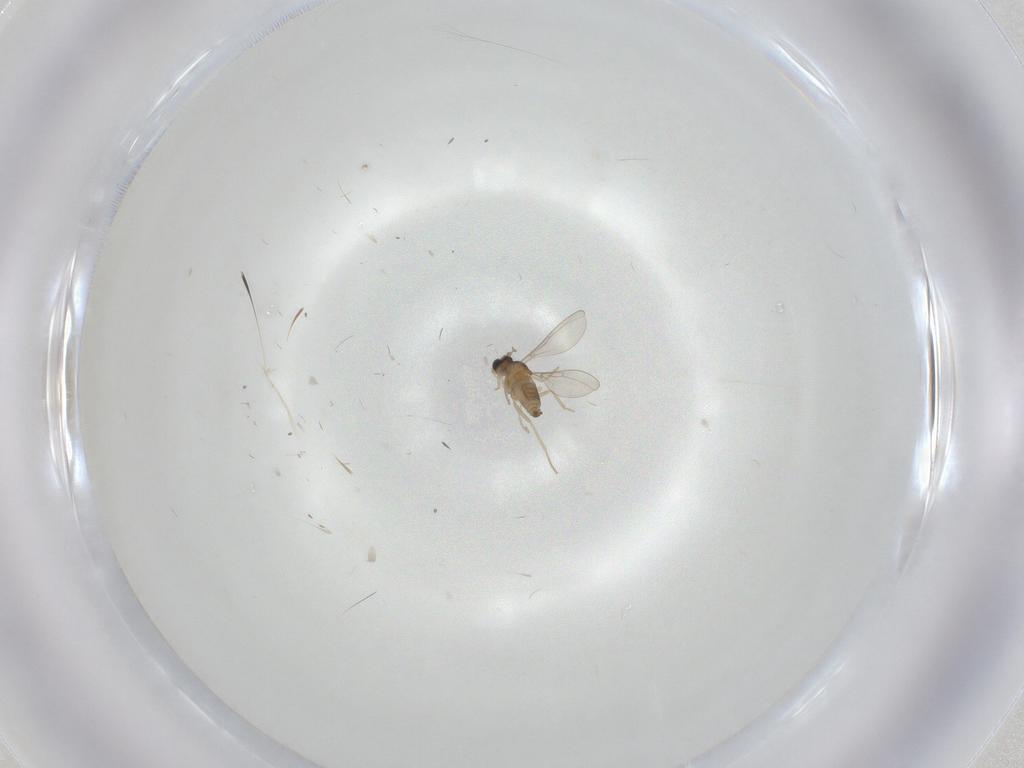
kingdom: Animalia
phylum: Arthropoda
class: Insecta
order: Diptera
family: Cecidomyiidae
